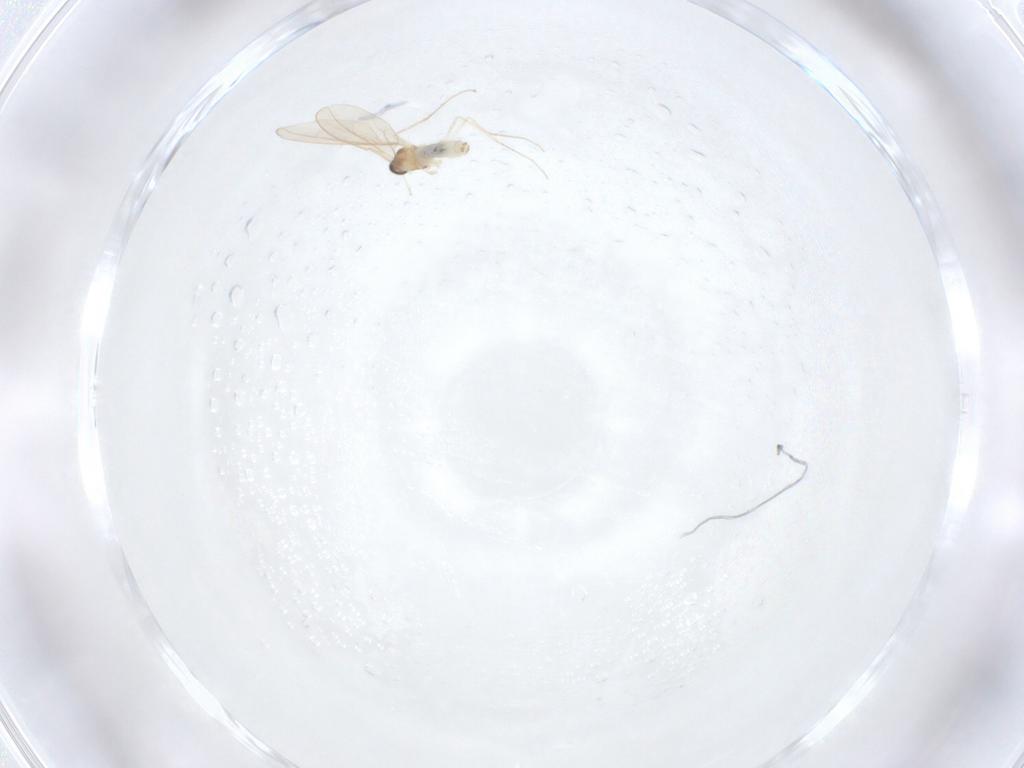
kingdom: Animalia
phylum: Arthropoda
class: Insecta
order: Diptera
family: Cecidomyiidae
